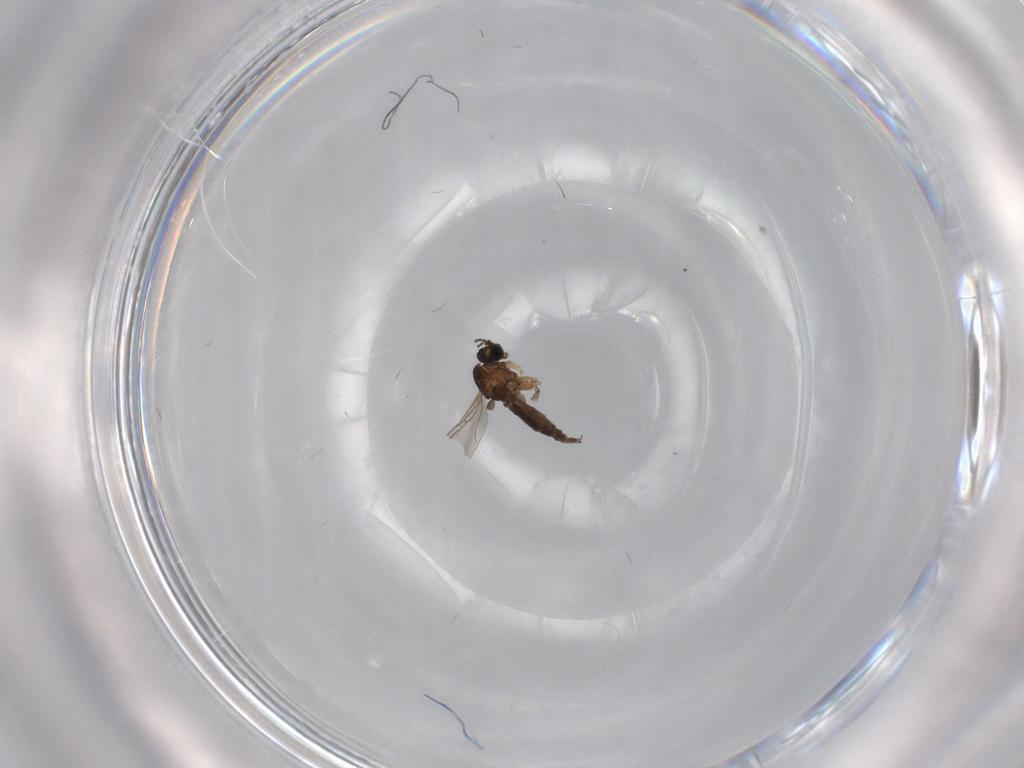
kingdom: Animalia
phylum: Arthropoda
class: Insecta
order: Diptera
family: Sciaridae
